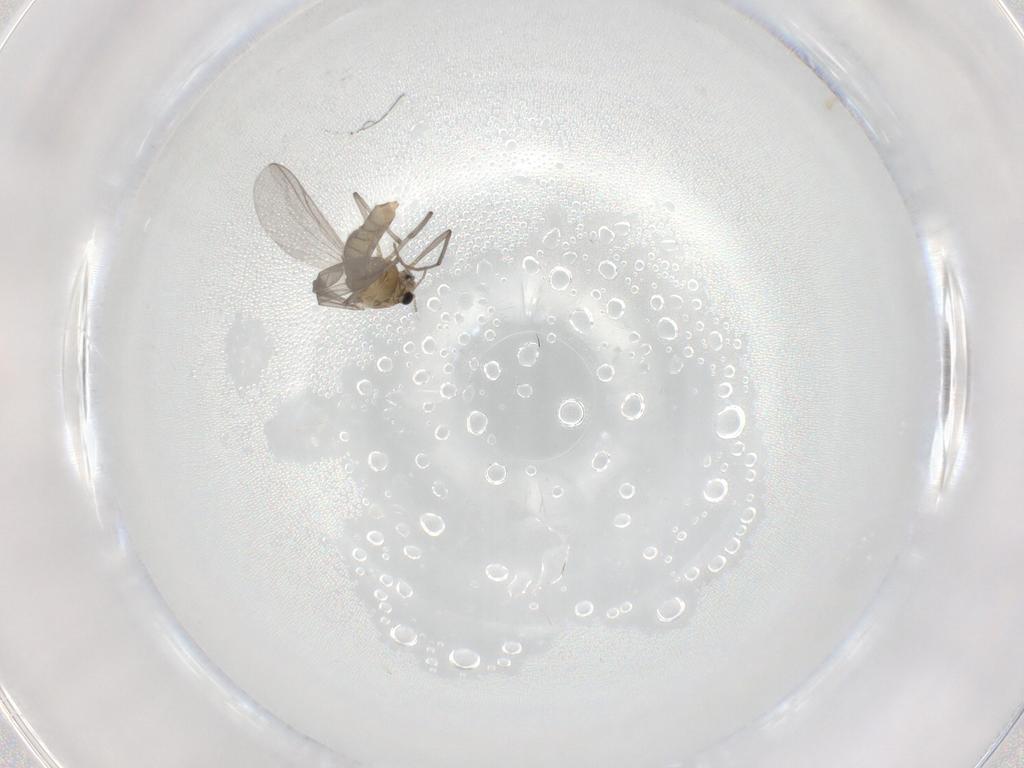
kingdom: Animalia
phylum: Arthropoda
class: Insecta
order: Diptera
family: Chironomidae
